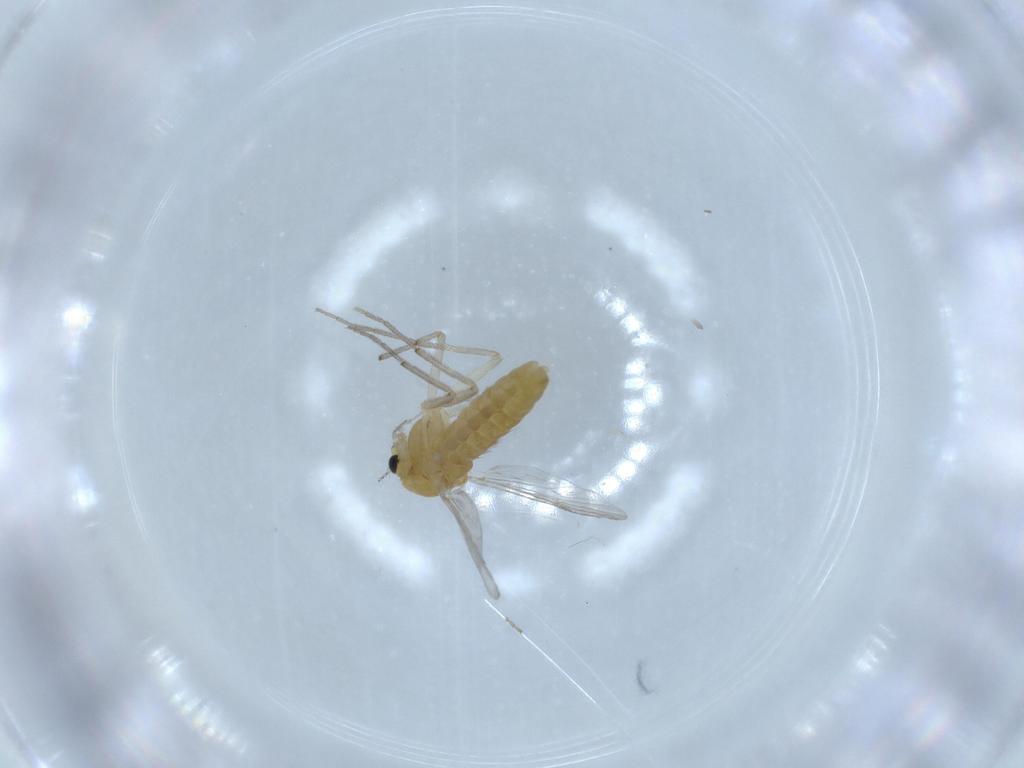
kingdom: Animalia
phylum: Arthropoda
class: Insecta
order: Diptera
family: Chironomidae
